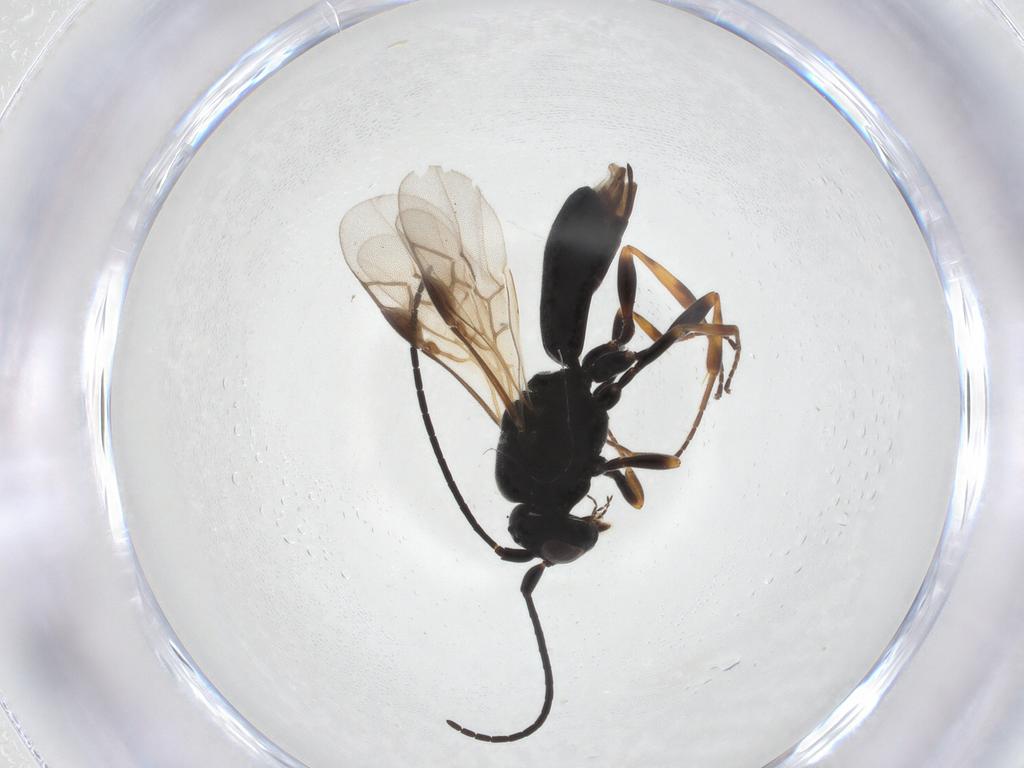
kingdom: Animalia
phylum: Arthropoda
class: Insecta
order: Hymenoptera
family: Braconidae
